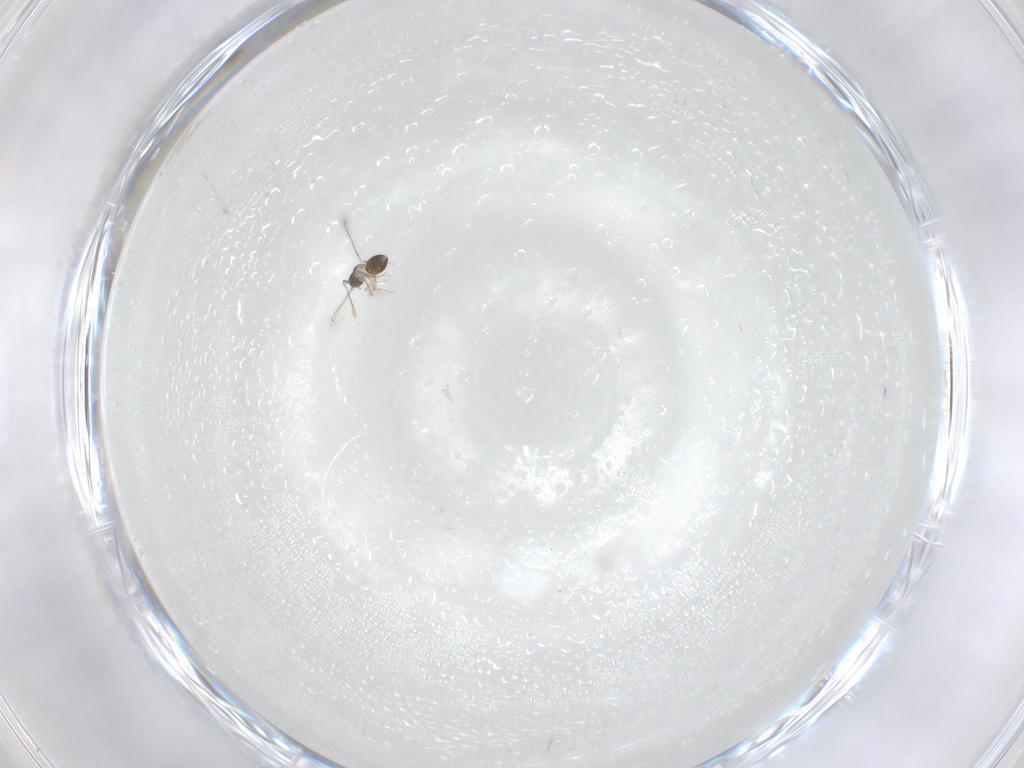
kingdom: Animalia
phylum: Arthropoda
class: Insecta
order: Hymenoptera
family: Mymaridae
